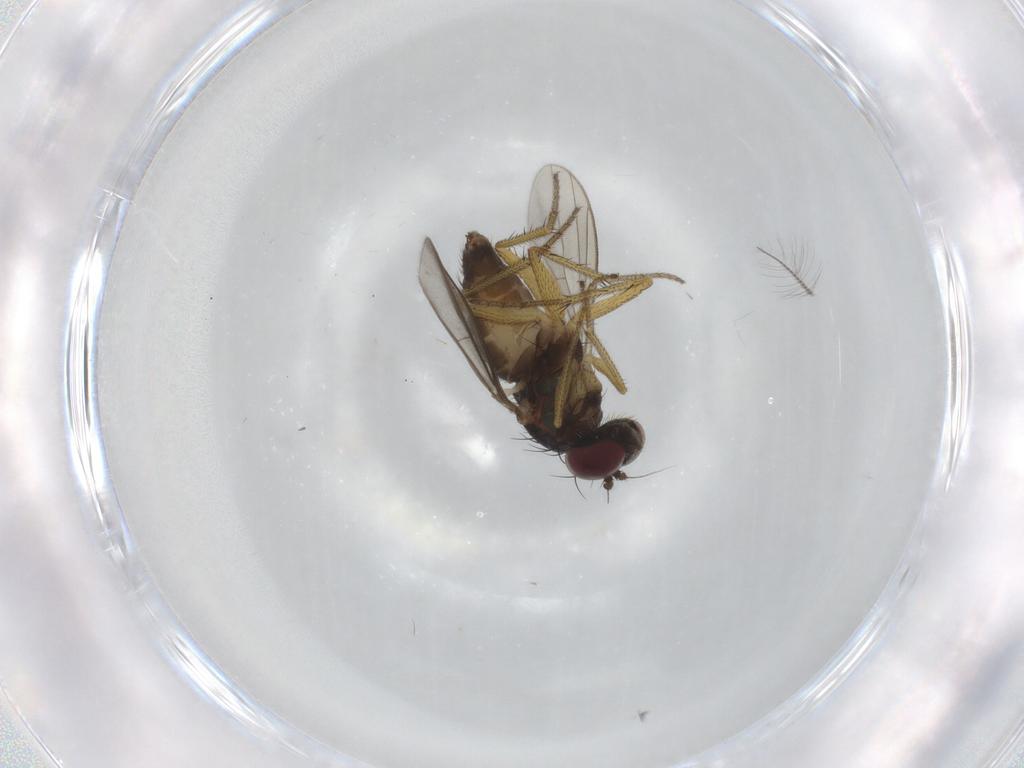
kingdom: Animalia
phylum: Arthropoda
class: Insecta
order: Diptera
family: Dolichopodidae
